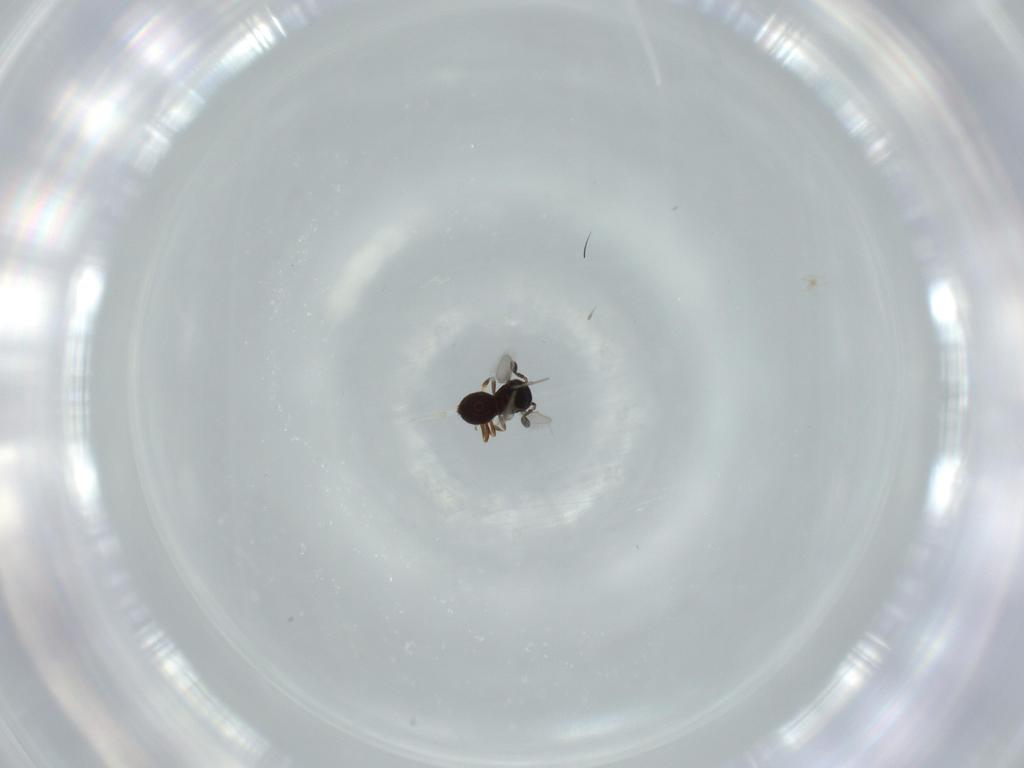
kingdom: Animalia
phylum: Arthropoda
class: Insecta
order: Hymenoptera
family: Scelionidae
